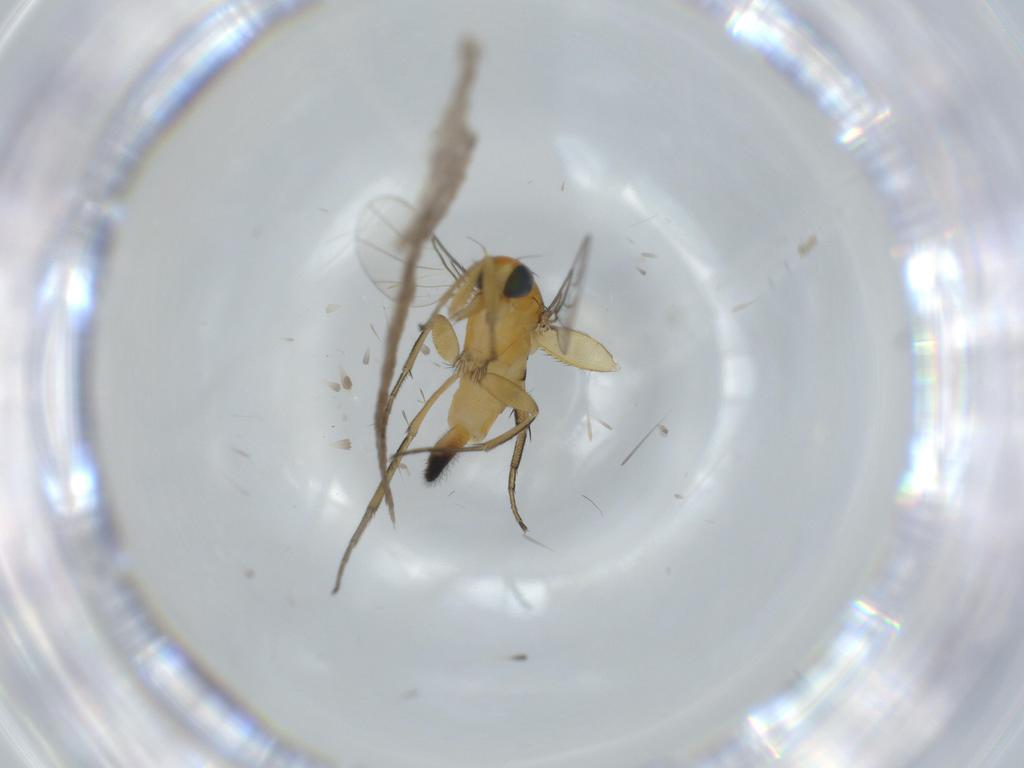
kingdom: Animalia
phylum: Arthropoda
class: Insecta
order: Diptera
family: Phoridae
